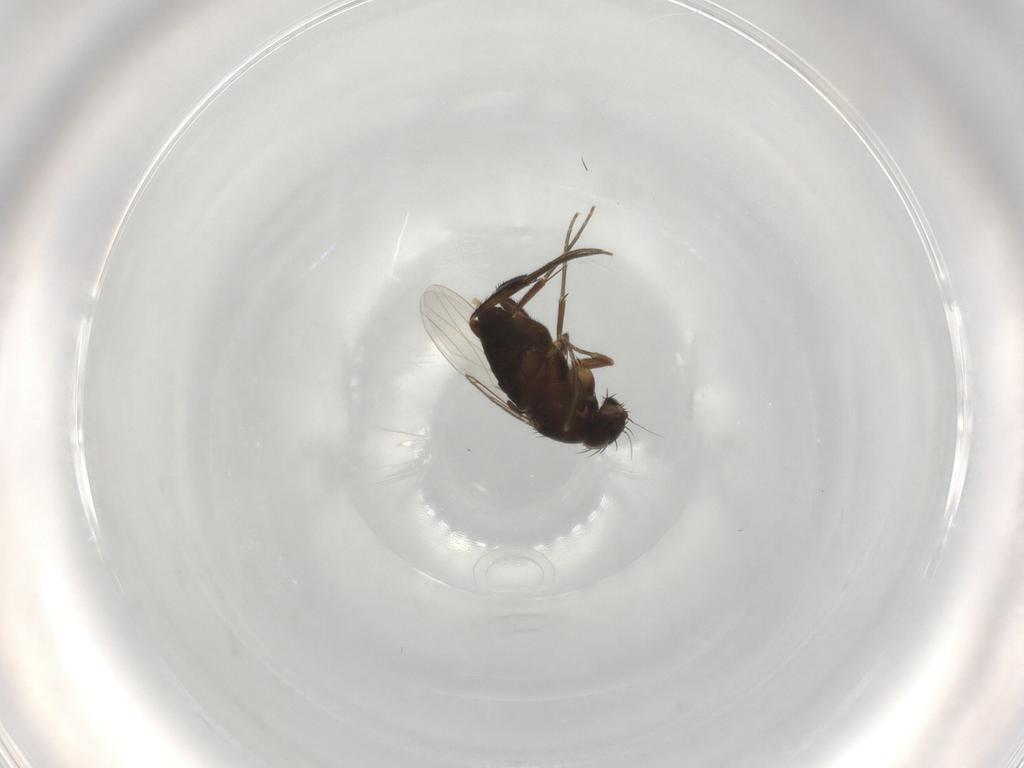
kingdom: Animalia
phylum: Arthropoda
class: Insecta
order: Diptera
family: Phoridae
